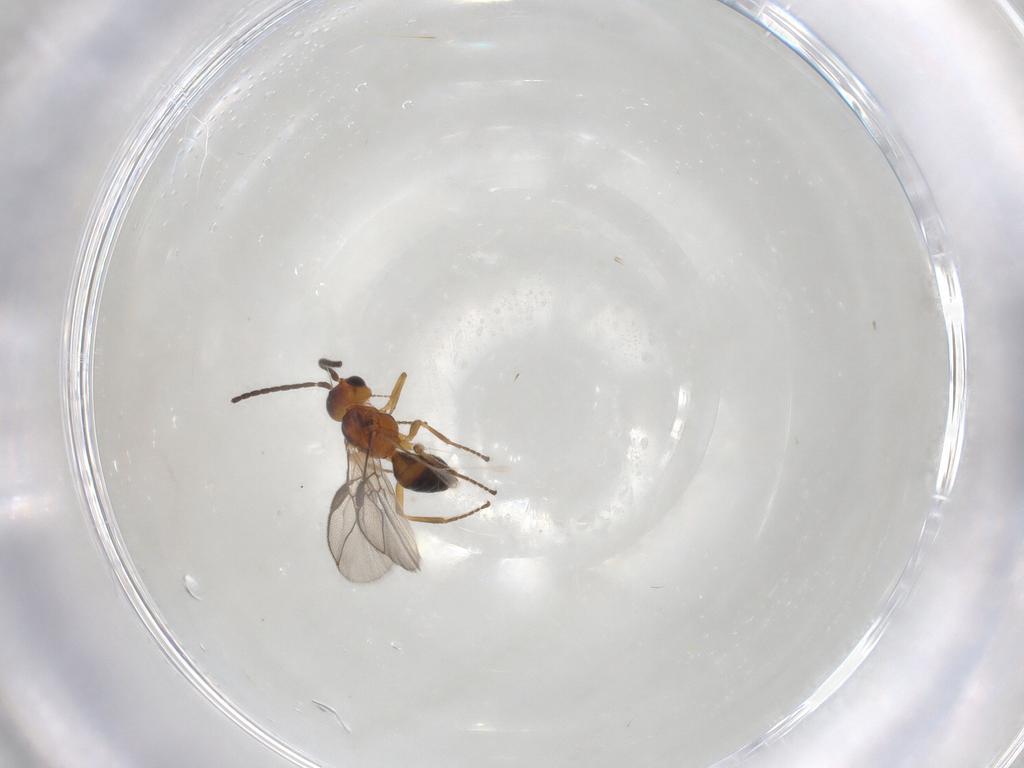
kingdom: Animalia
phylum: Arthropoda
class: Insecta
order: Hymenoptera
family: Braconidae
